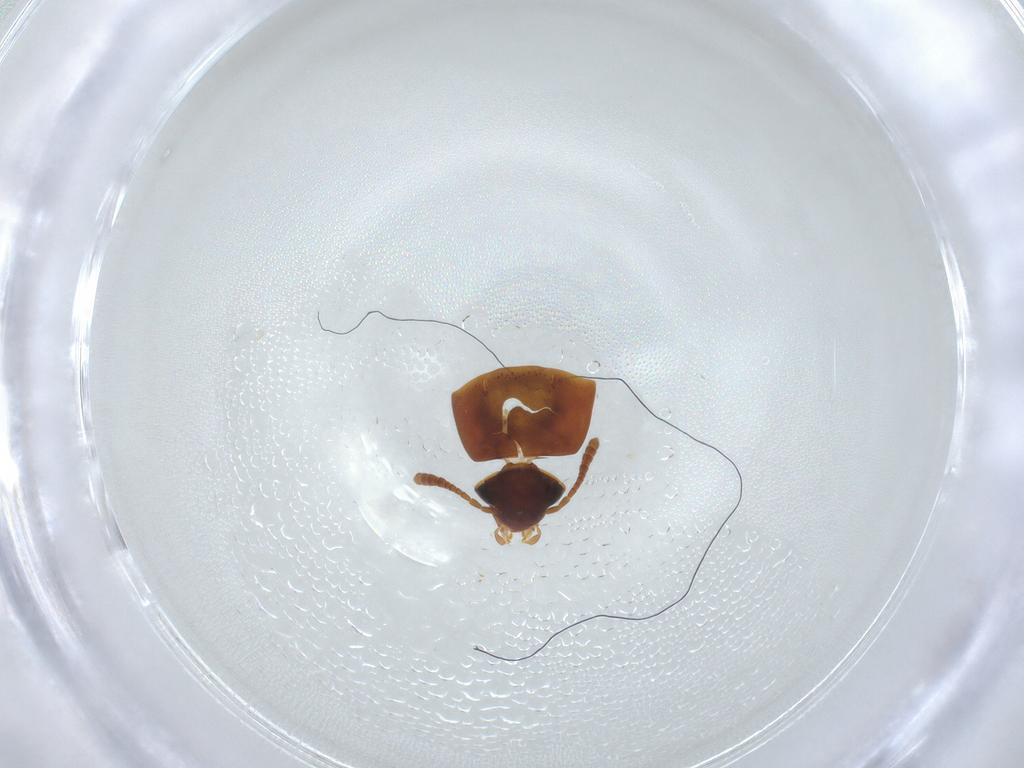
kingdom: Animalia
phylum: Arthropoda
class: Insecta
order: Coleoptera
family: Leiodidae
